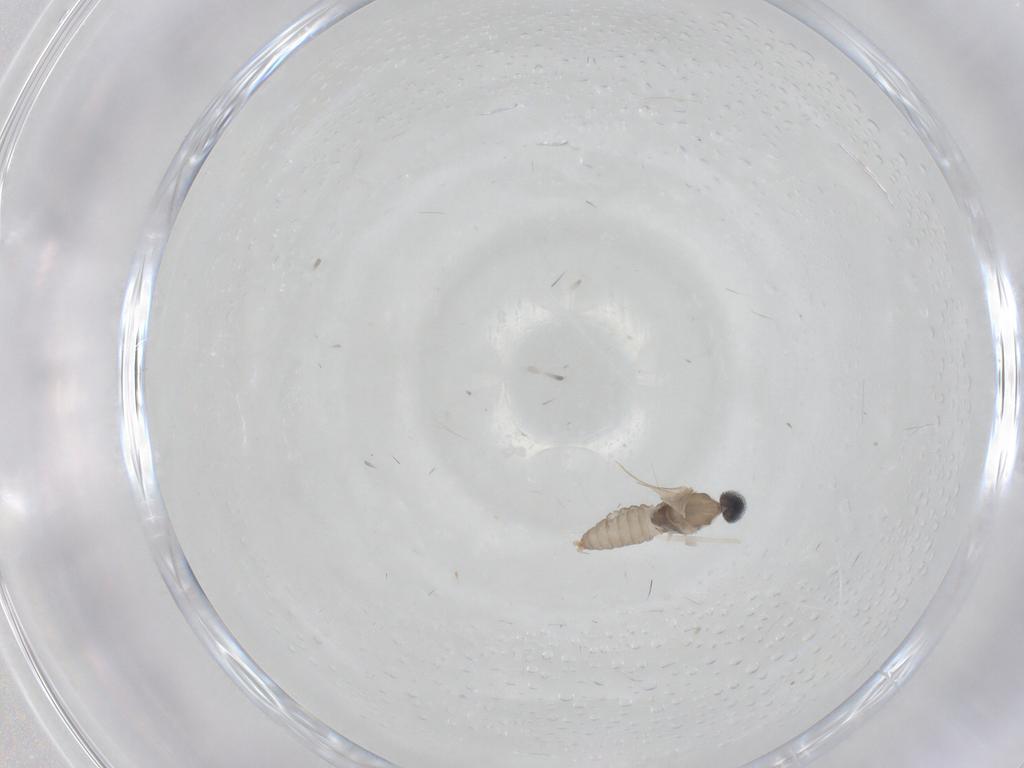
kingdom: Animalia
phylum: Arthropoda
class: Insecta
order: Diptera
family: Cecidomyiidae
